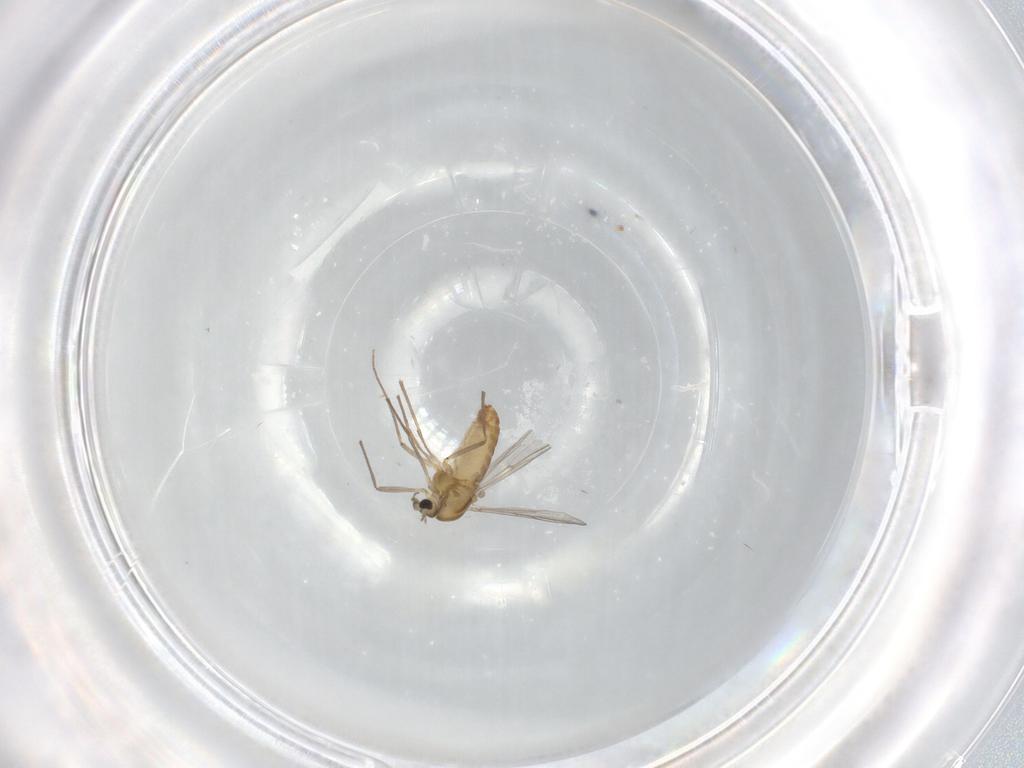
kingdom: Animalia
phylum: Arthropoda
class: Insecta
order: Diptera
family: Chironomidae
